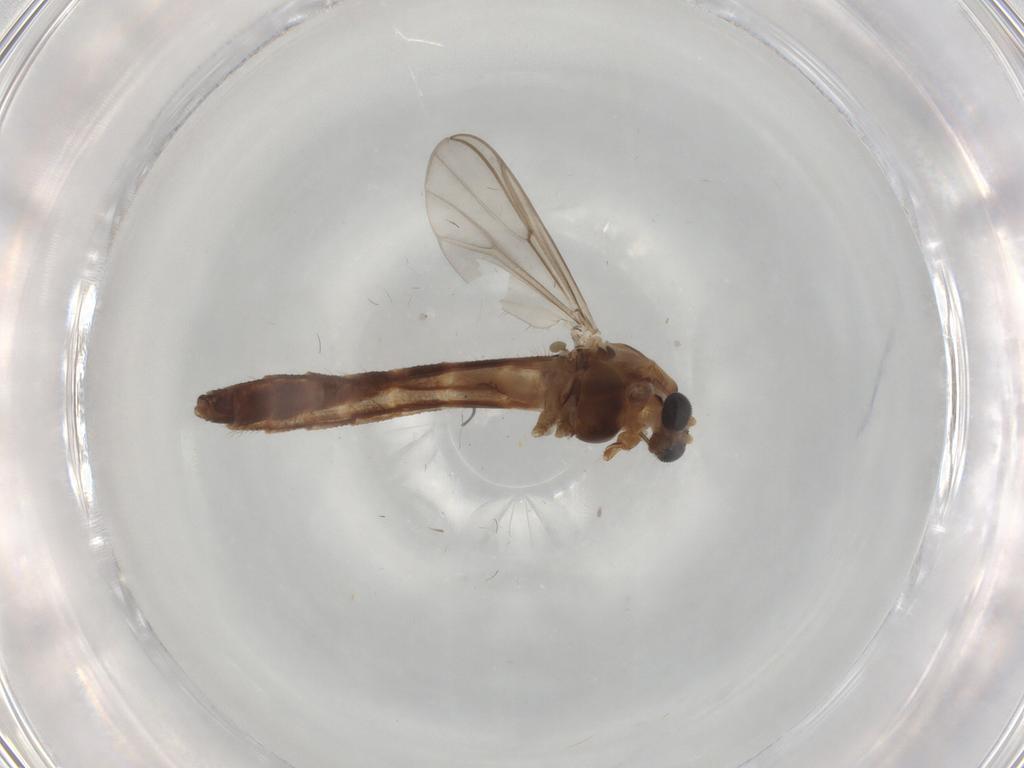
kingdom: Animalia
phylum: Arthropoda
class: Insecta
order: Diptera
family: Chironomidae
